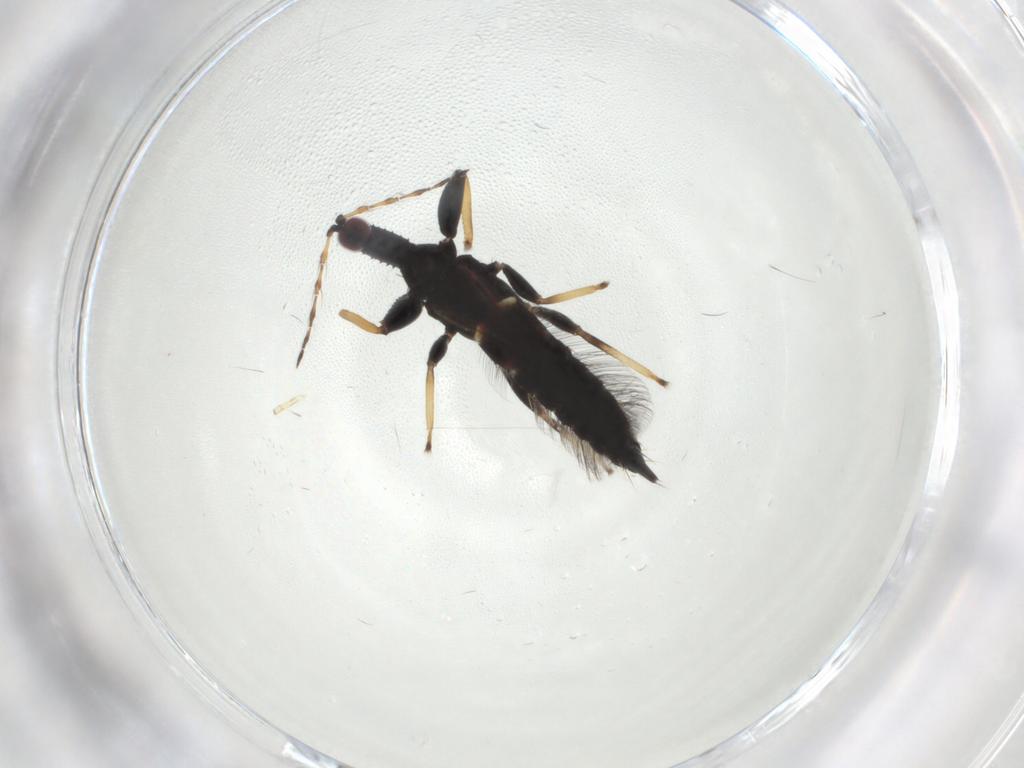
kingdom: Animalia
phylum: Arthropoda
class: Insecta
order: Thysanoptera
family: Phlaeothripidae
